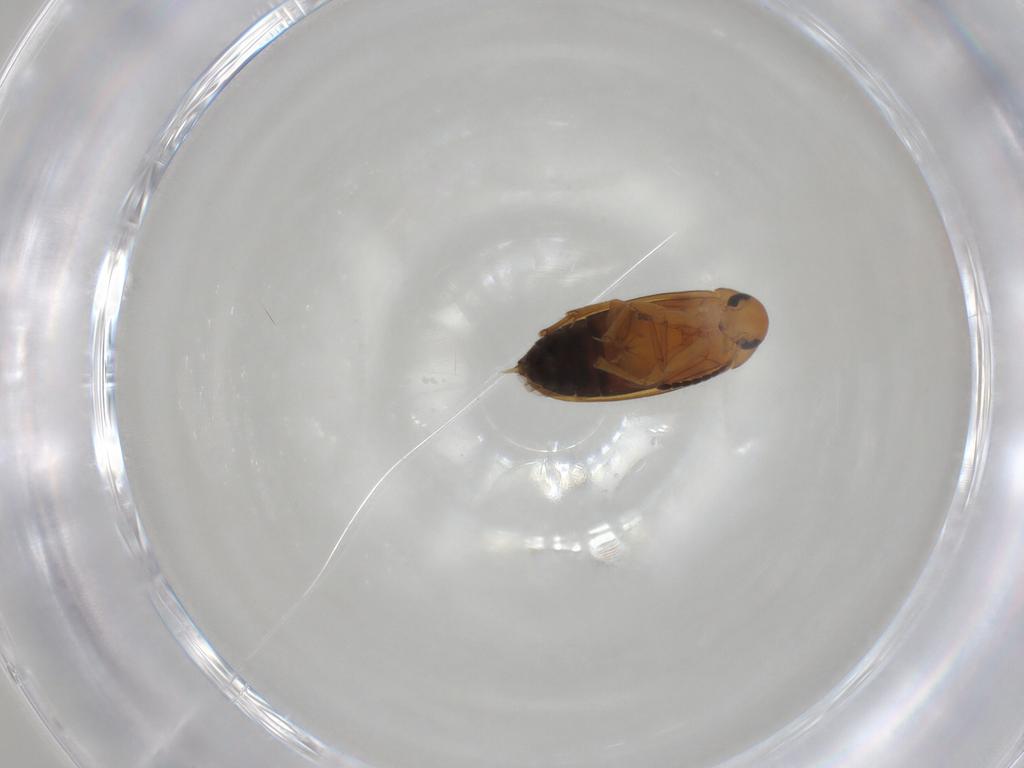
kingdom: Animalia
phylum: Arthropoda
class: Insecta
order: Coleoptera
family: Scraptiidae
